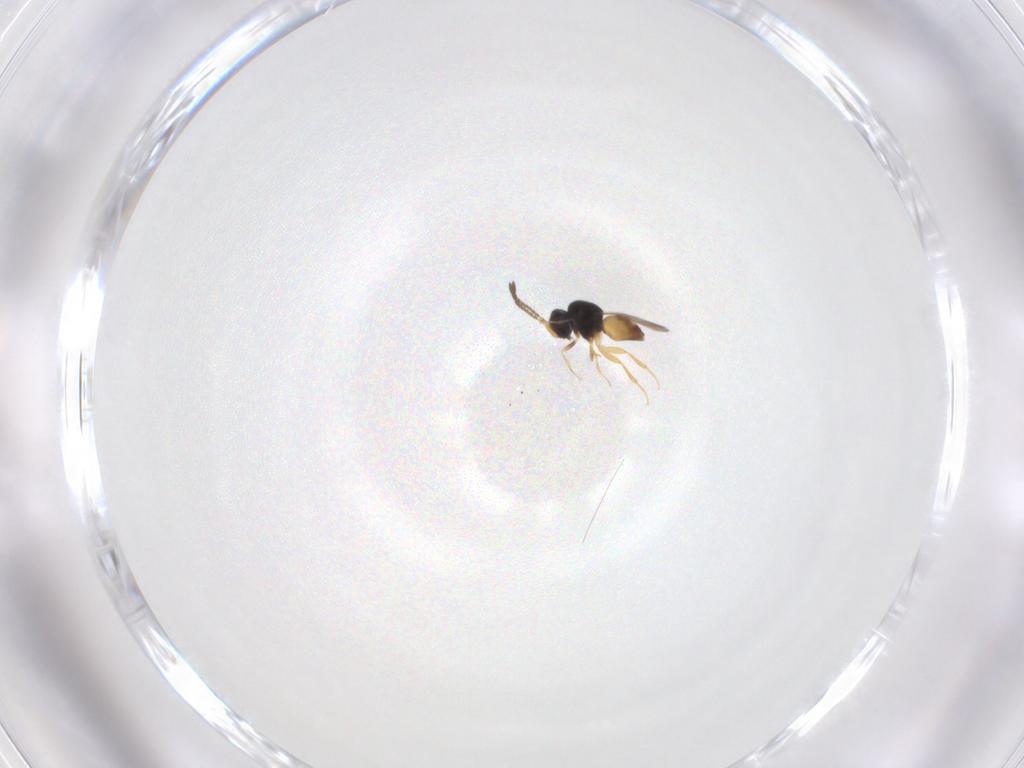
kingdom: Animalia
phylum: Arthropoda
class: Insecta
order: Hymenoptera
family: Ceraphronidae
